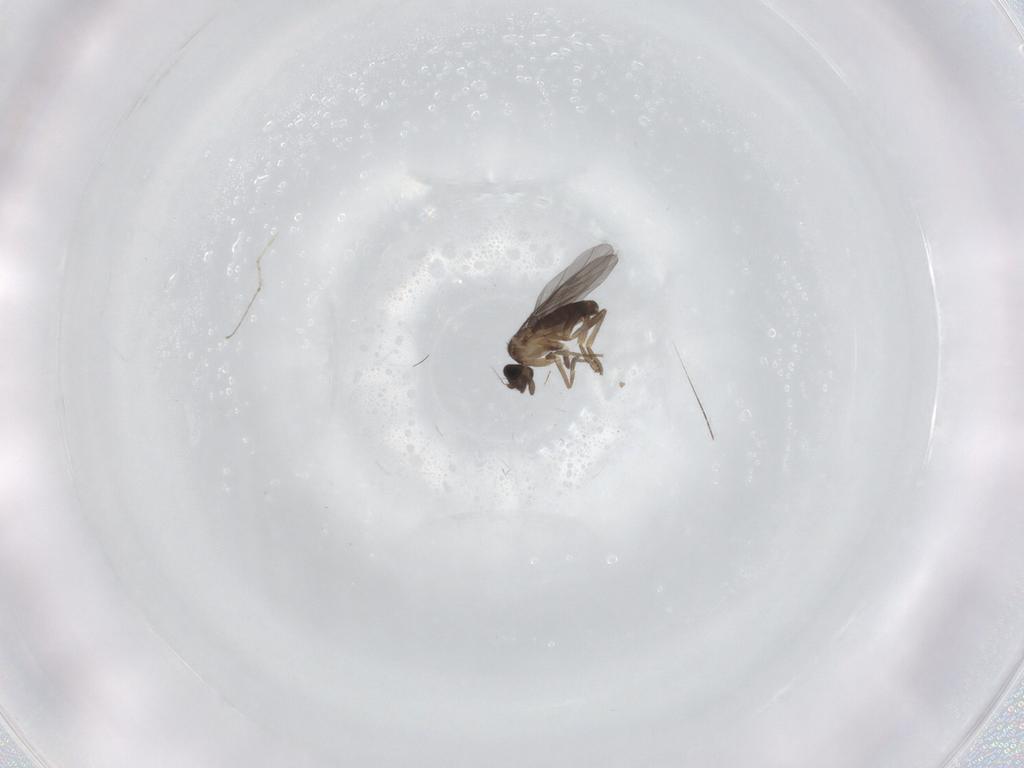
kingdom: Animalia
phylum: Arthropoda
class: Insecta
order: Diptera
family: Cecidomyiidae
